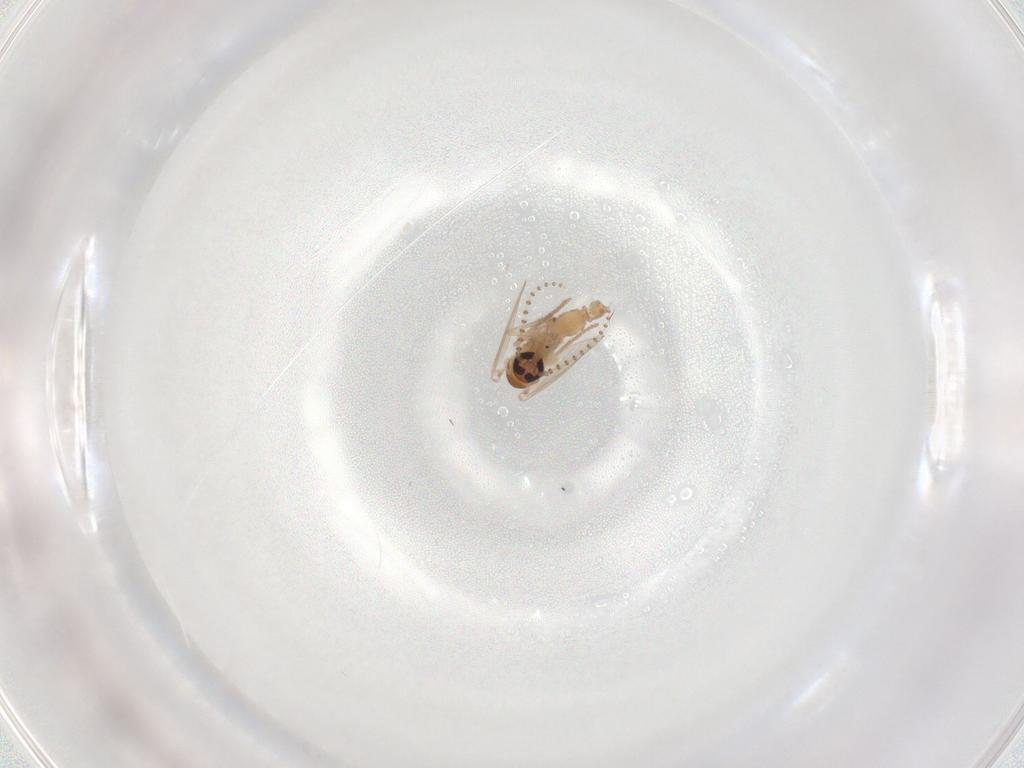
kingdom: Animalia
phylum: Arthropoda
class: Insecta
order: Diptera
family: Psychodidae
